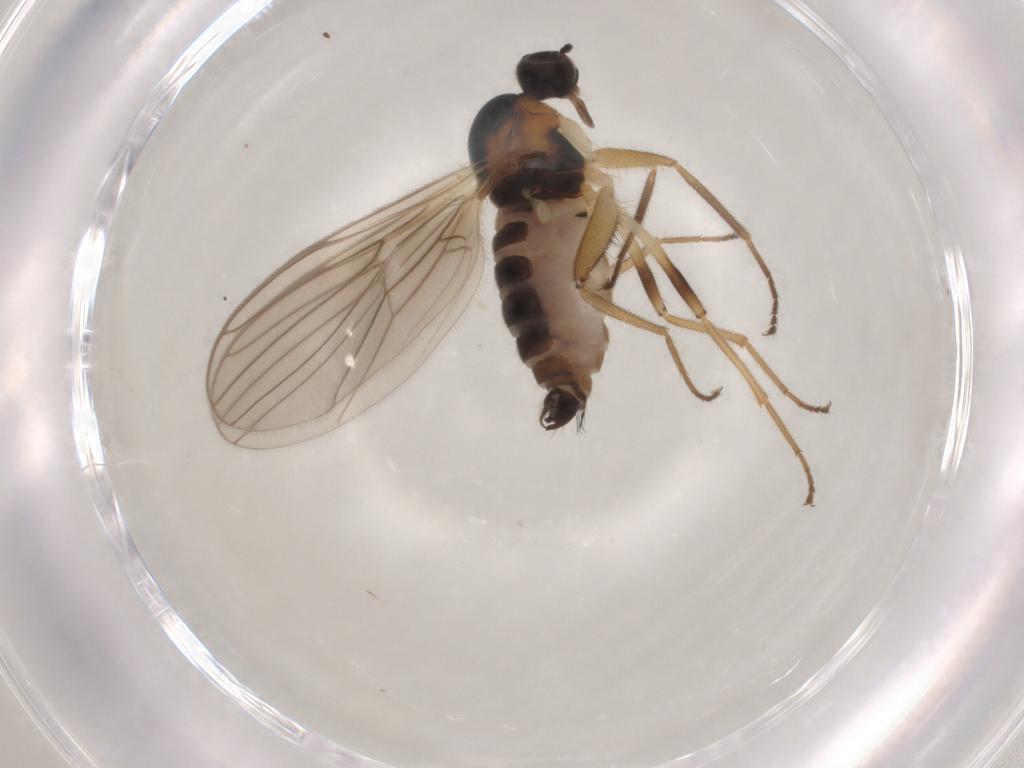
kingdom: Animalia
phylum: Arthropoda
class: Insecta
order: Diptera
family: Hybotidae
